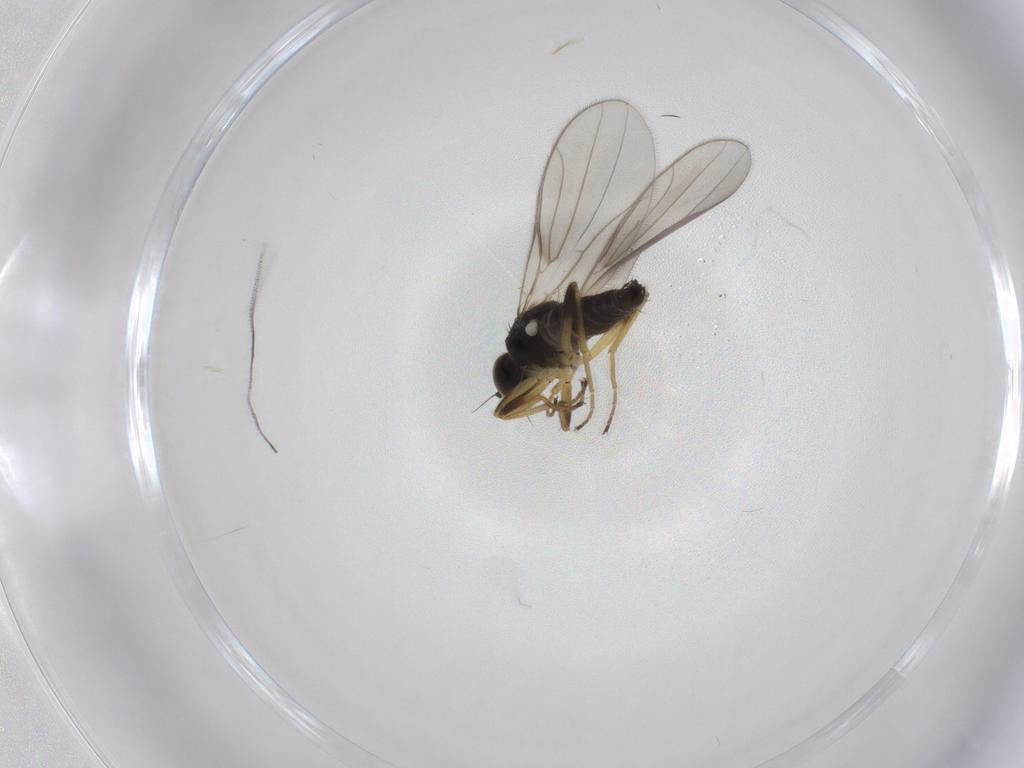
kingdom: Animalia
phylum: Arthropoda
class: Insecta
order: Diptera
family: Hybotidae
